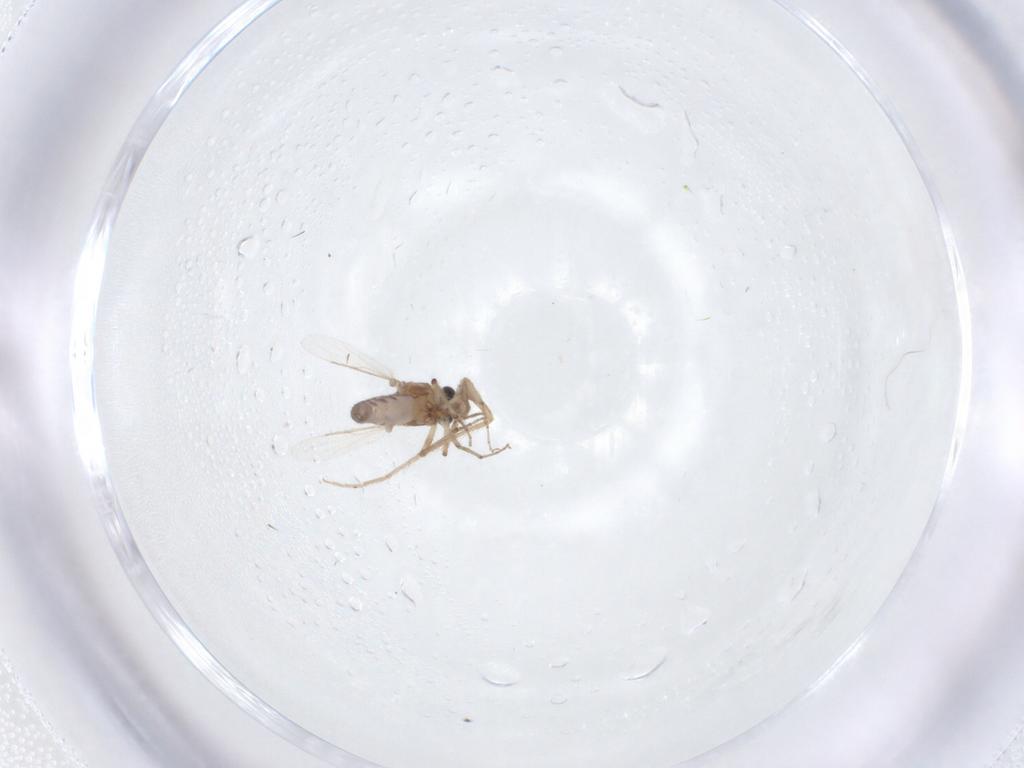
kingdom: Animalia
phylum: Arthropoda
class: Insecta
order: Diptera
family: Ceratopogonidae
